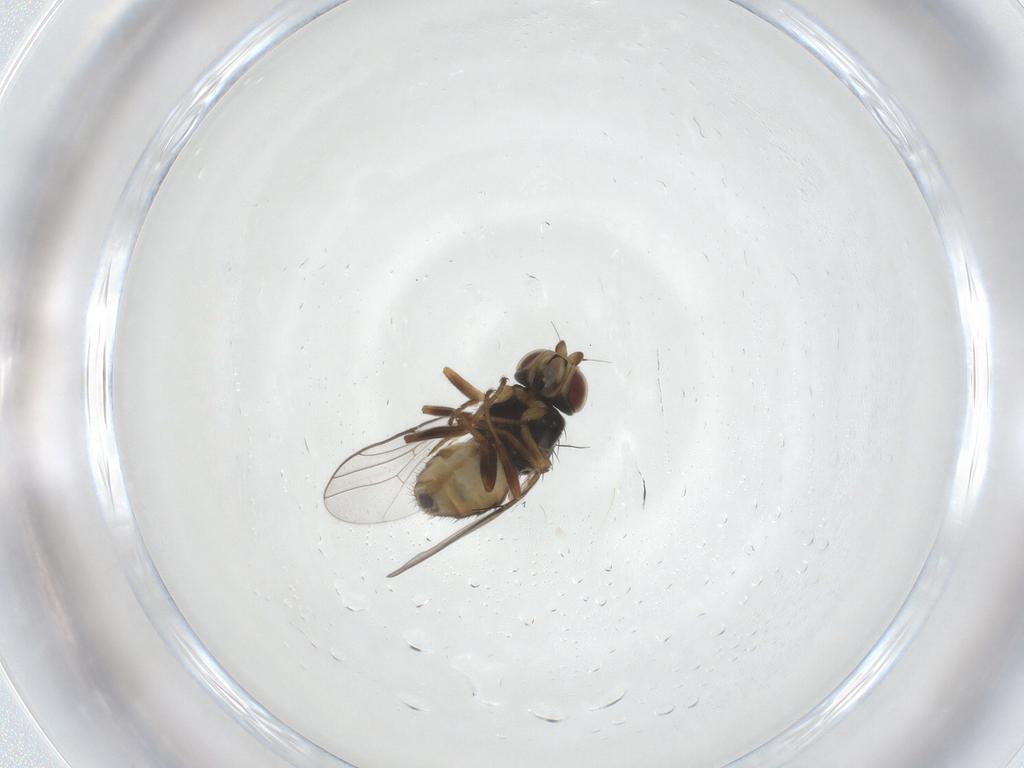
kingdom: Animalia
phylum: Arthropoda
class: Insecta
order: Diptera
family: Chloropidae
